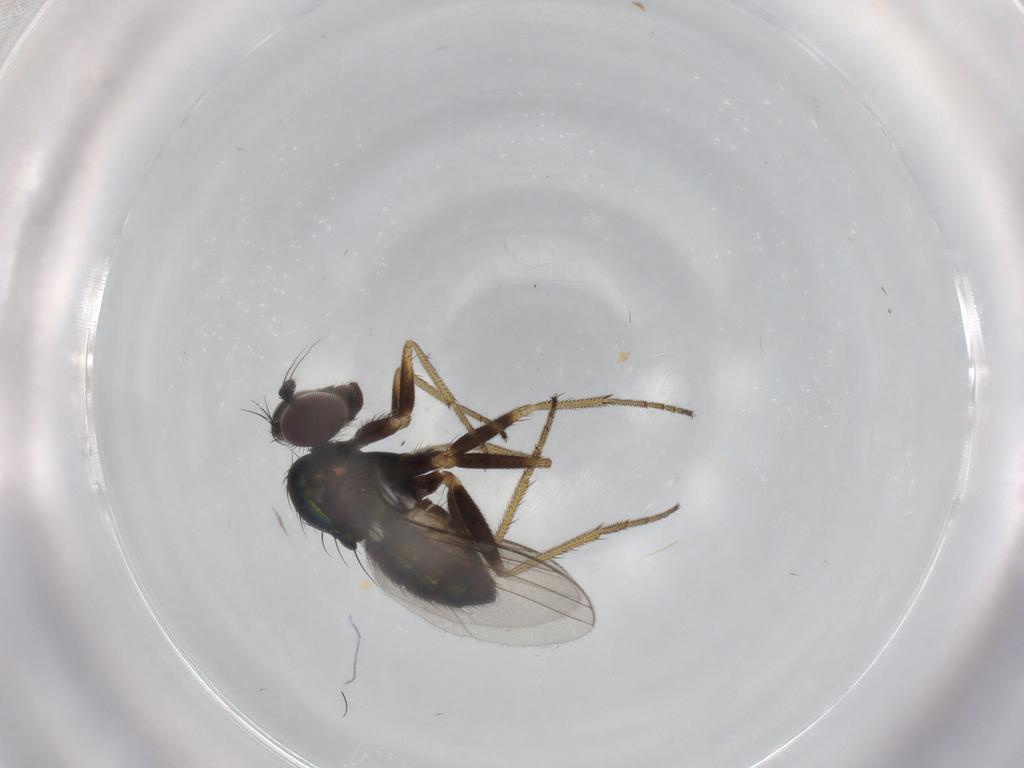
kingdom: Animalia
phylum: Arthropoda
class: Insecta
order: Diptera
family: Dolichopodidae
